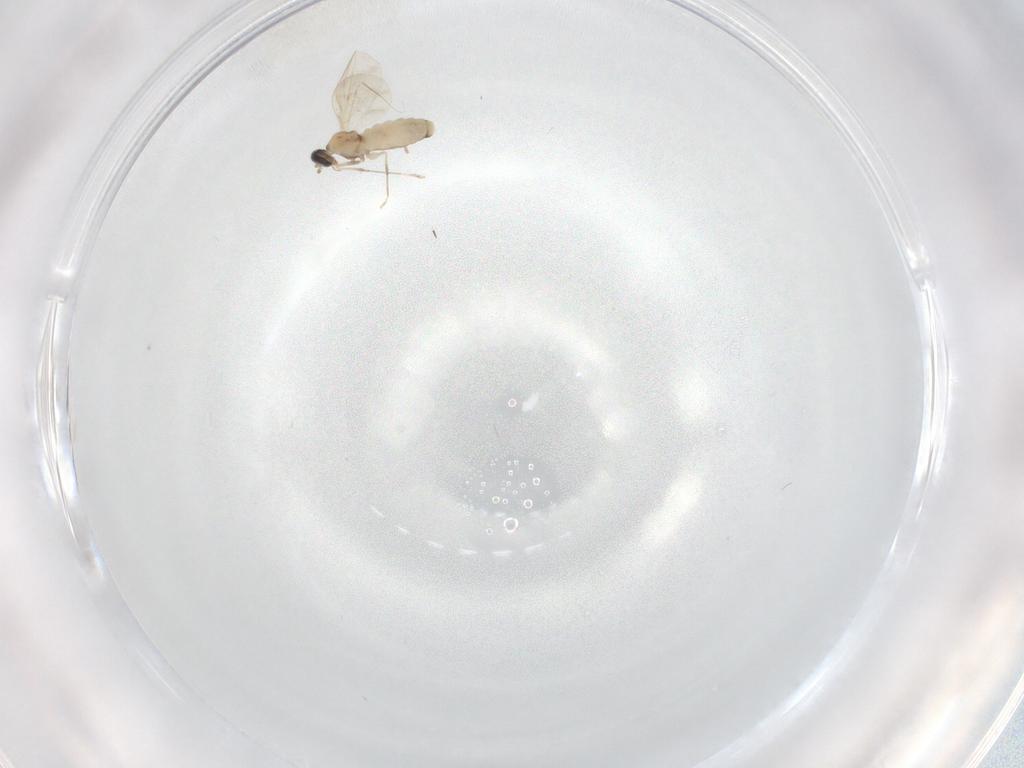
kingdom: Animalia
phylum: Arthropoda
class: Insecta
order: Diptera
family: Cecidomyiidae
